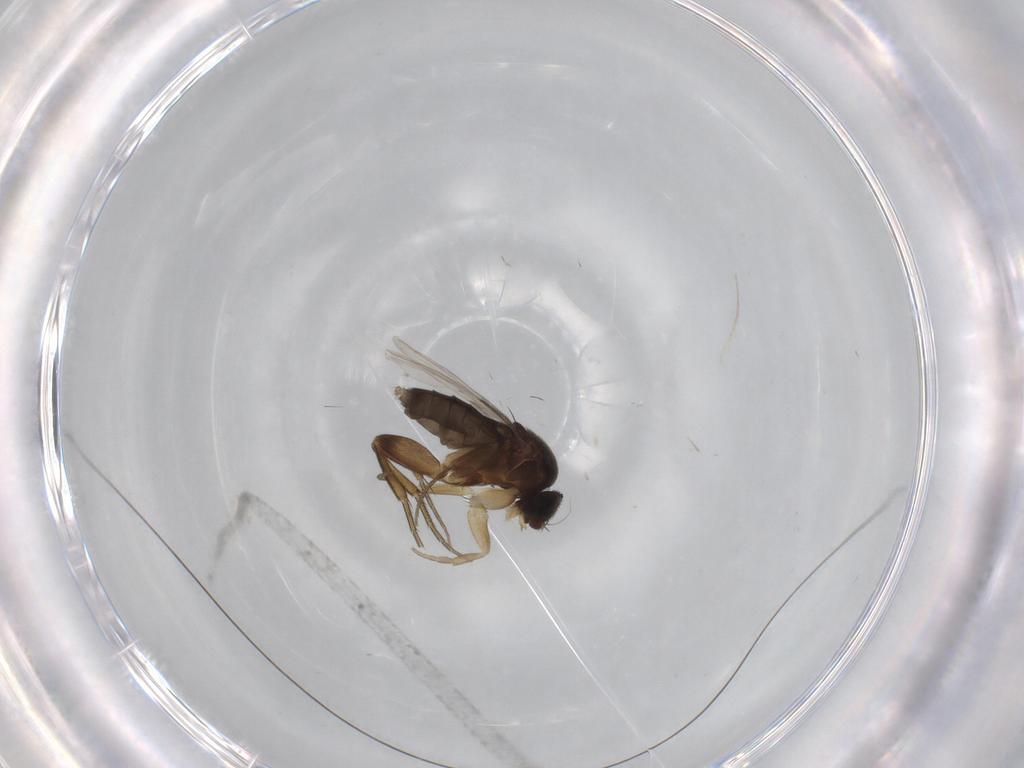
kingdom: Animalia
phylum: Arthropoda
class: Insecta
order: Diptera
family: Phoridae
